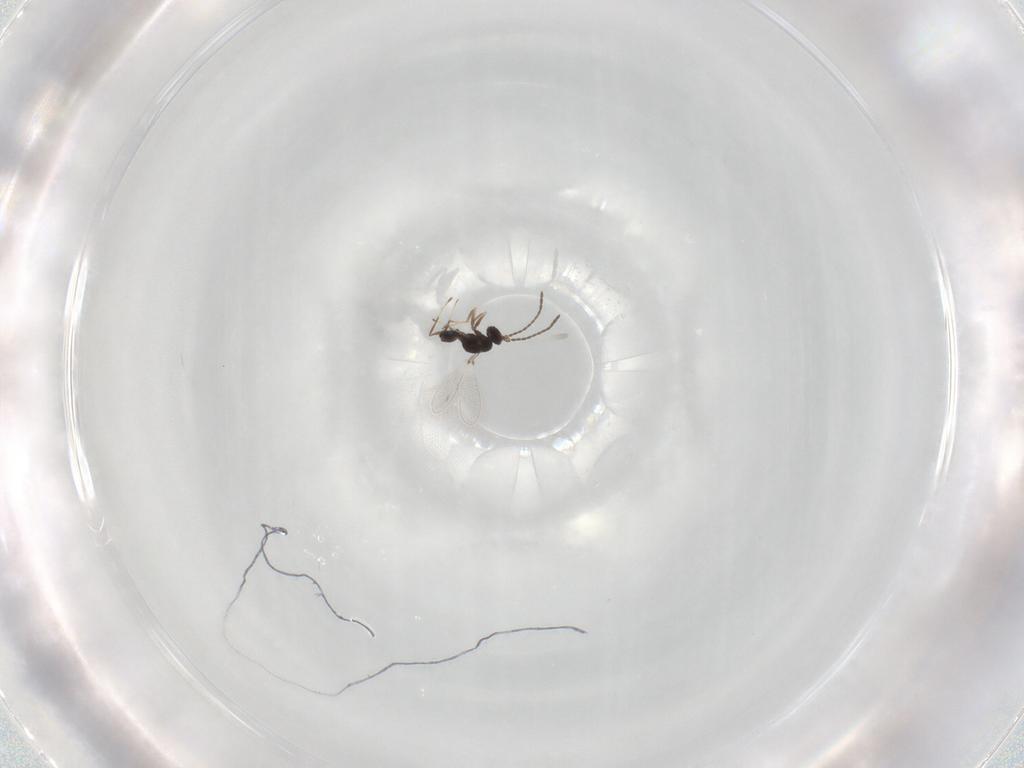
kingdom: Animalia
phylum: Arthropoda
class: Insecta
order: Hymenoptera
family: Mymaridae
